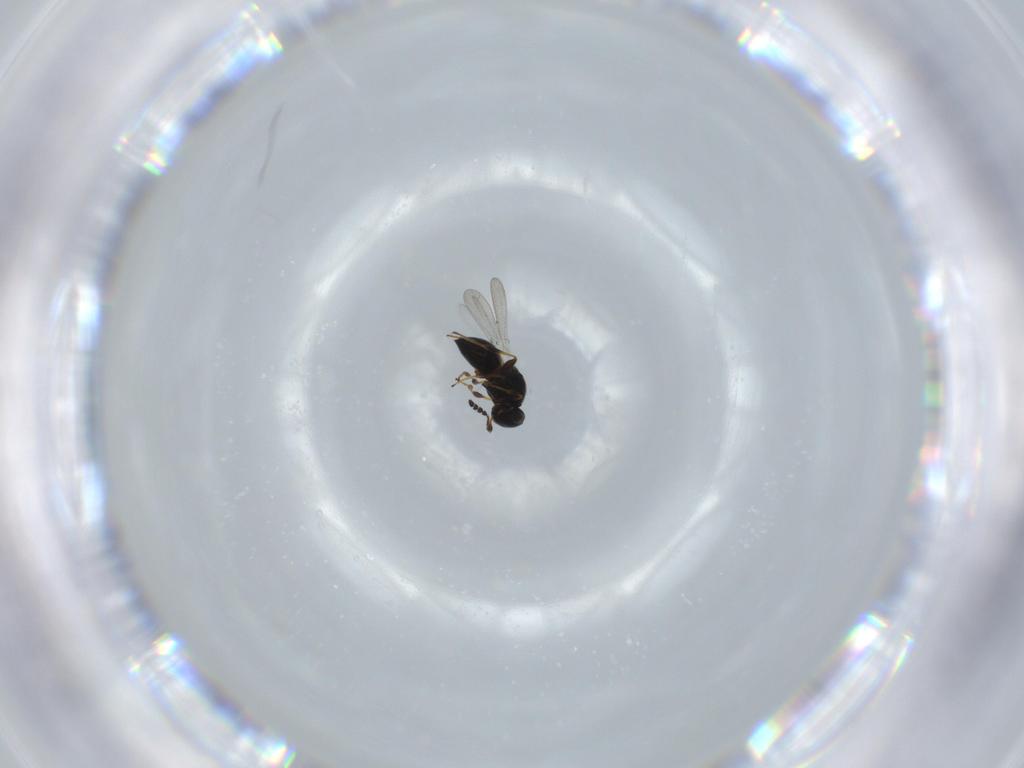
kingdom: Animalia
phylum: Arthropoda
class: Insecta
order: Hymenoptera
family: Platygastridae
